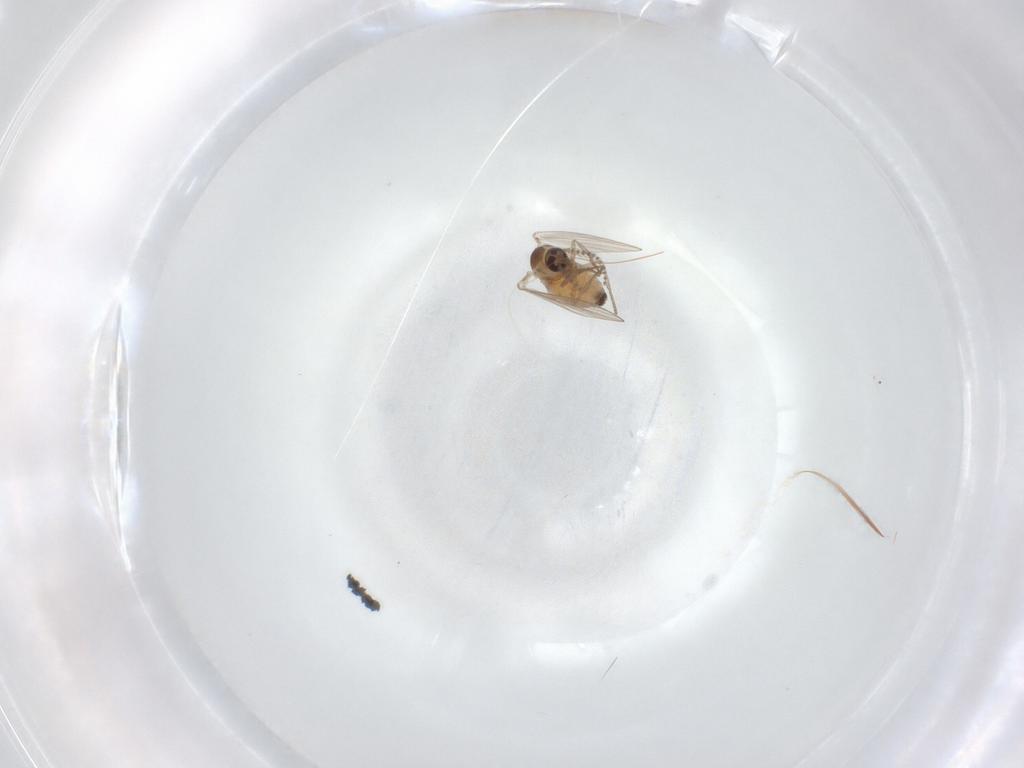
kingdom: Animalia
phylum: Arthropoda
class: Insecta
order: Diptera
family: Psychodidae
